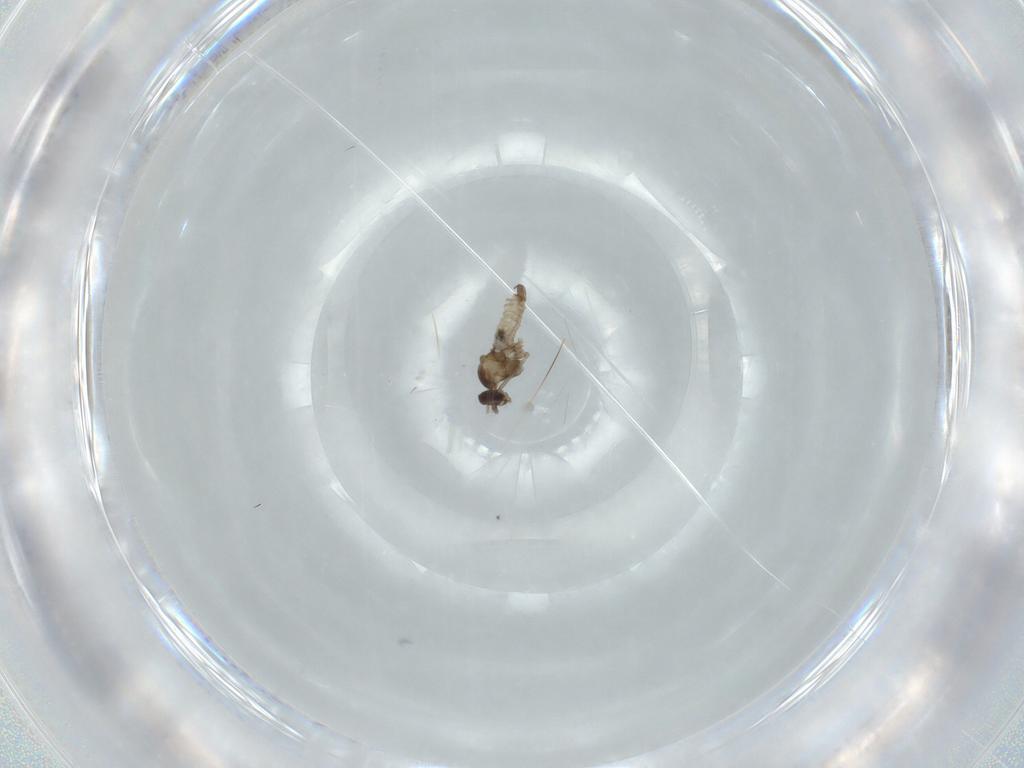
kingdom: Animalia
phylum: Arthropoda
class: Insecta
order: Diptera
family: Cecidomyiidae
